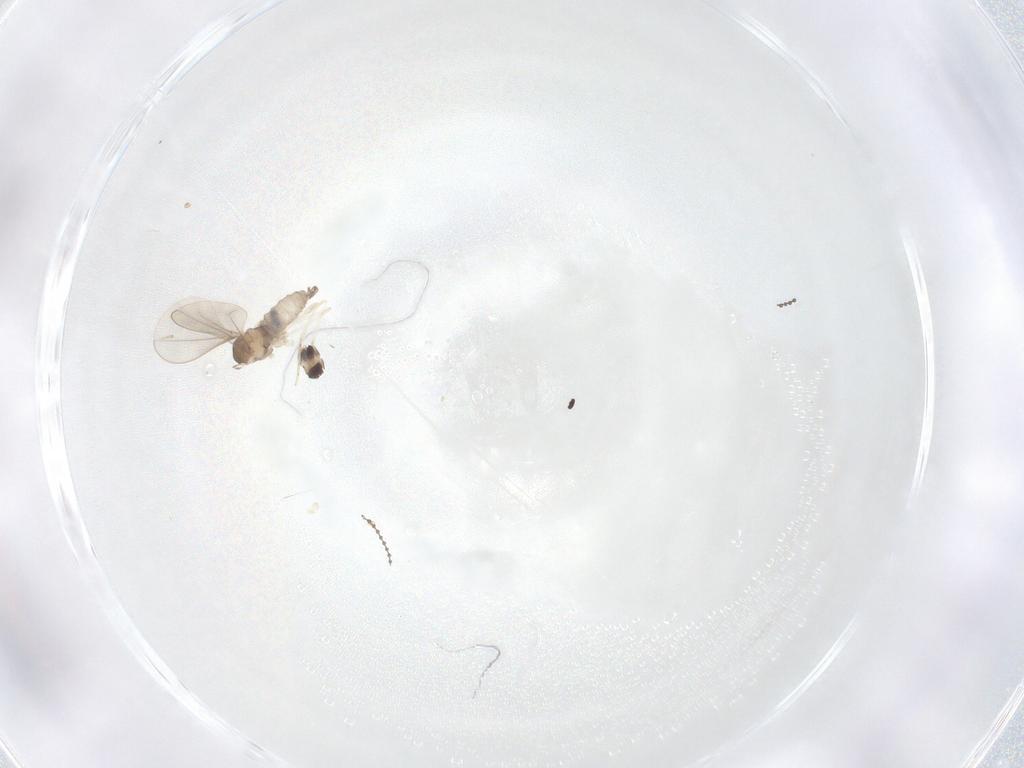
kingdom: Animalia
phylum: Arthropoda
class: Insecta
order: Diptera
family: Cecidomyiidae
